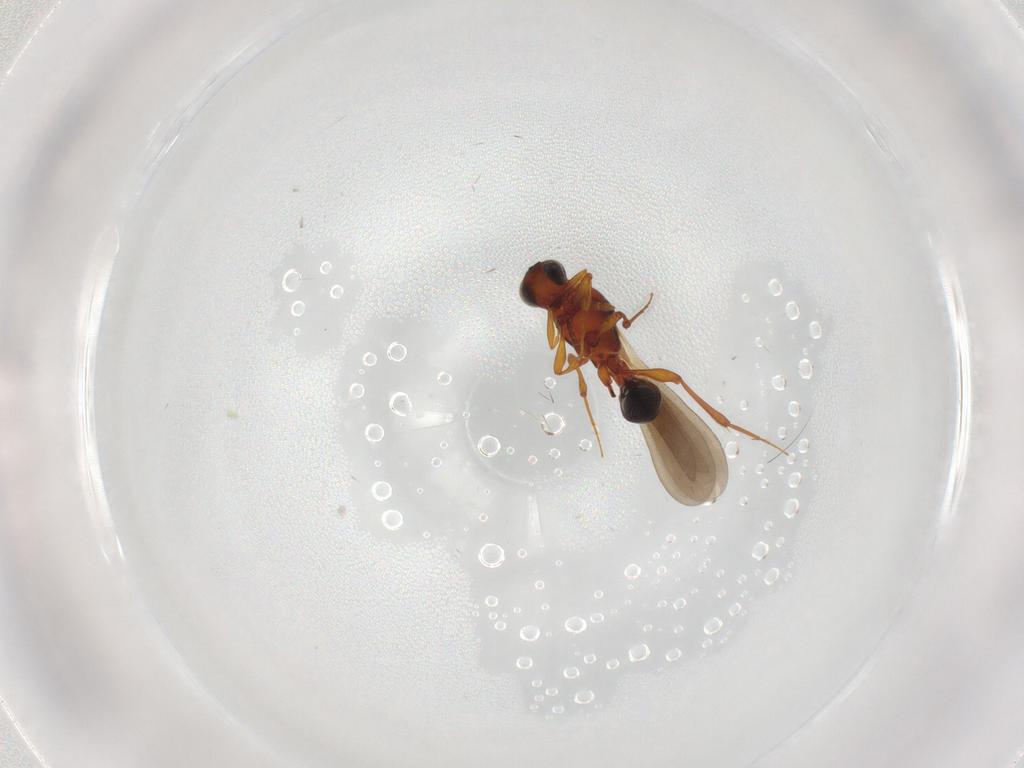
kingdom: Animalia
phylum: Arthropoda
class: Insecta
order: Hymenoptera
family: Platygastridae
